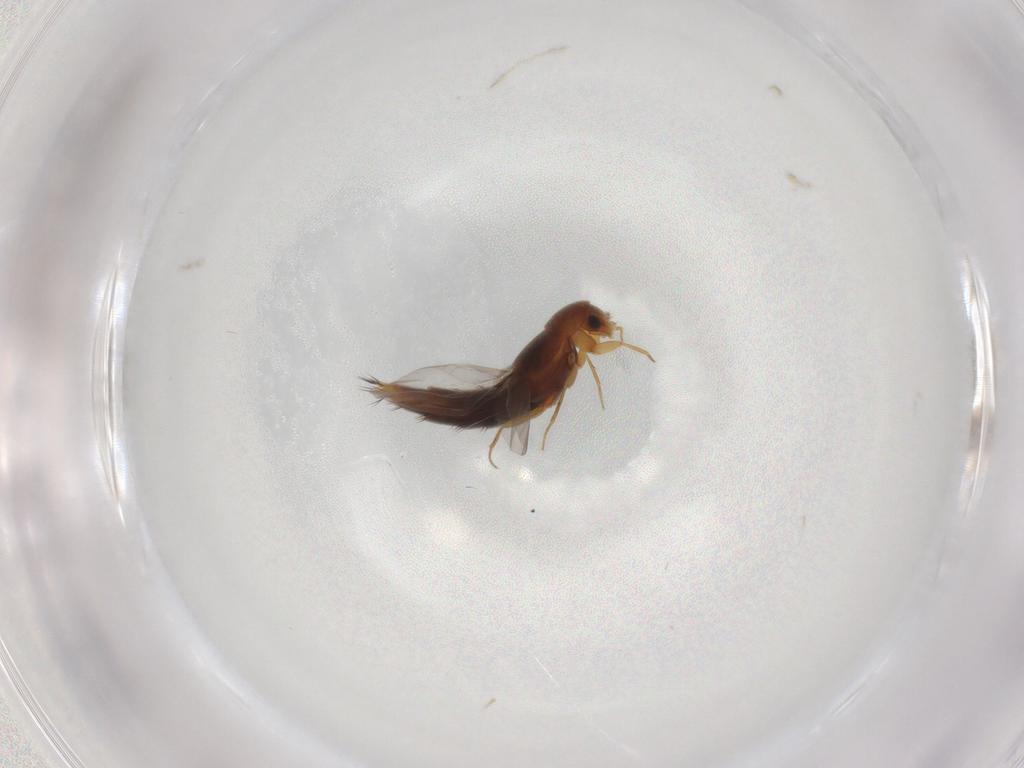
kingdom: Animalia
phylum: Arthropoda
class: Insecta
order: Coleoptera
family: Staphylinidae
